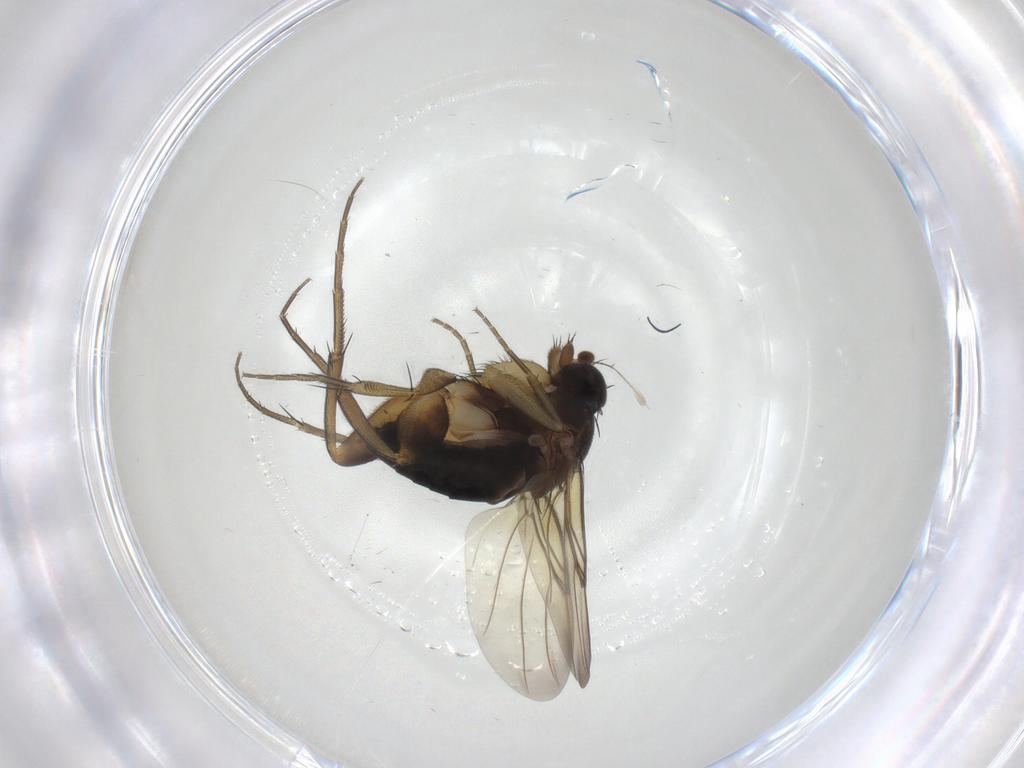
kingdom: Animalia
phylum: Arthropoda
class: Insecta
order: Diptera
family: Phoridae
